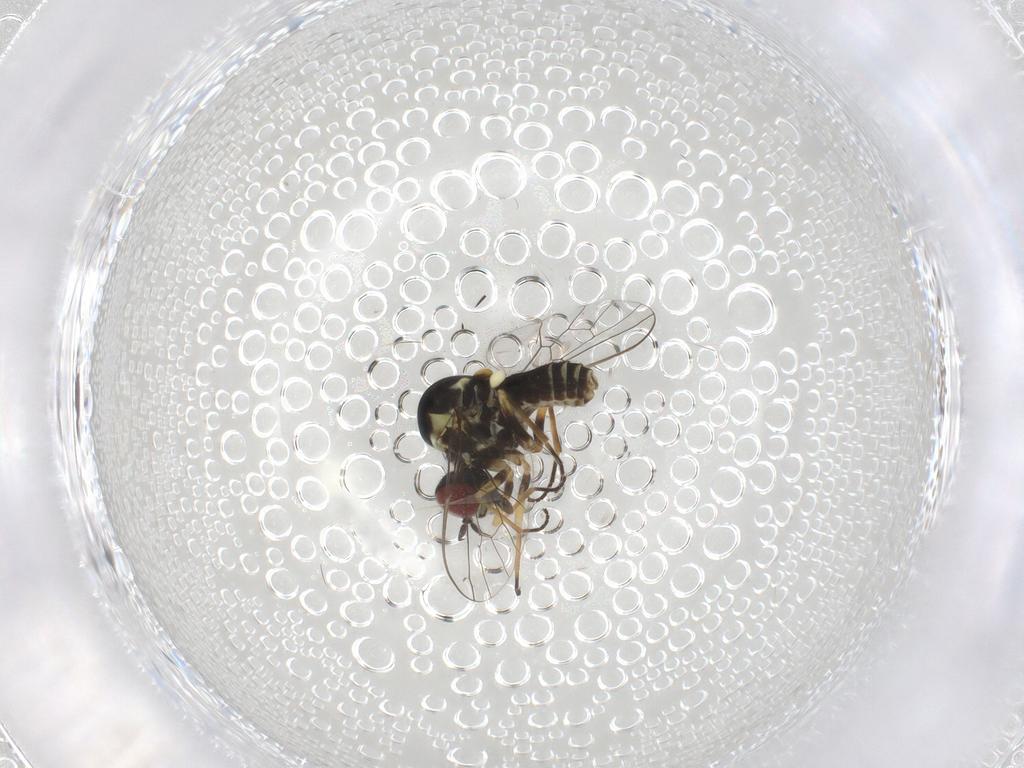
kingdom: Animalia
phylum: Arthropoda
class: Insecta
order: Diptera
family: Bombyliidae
